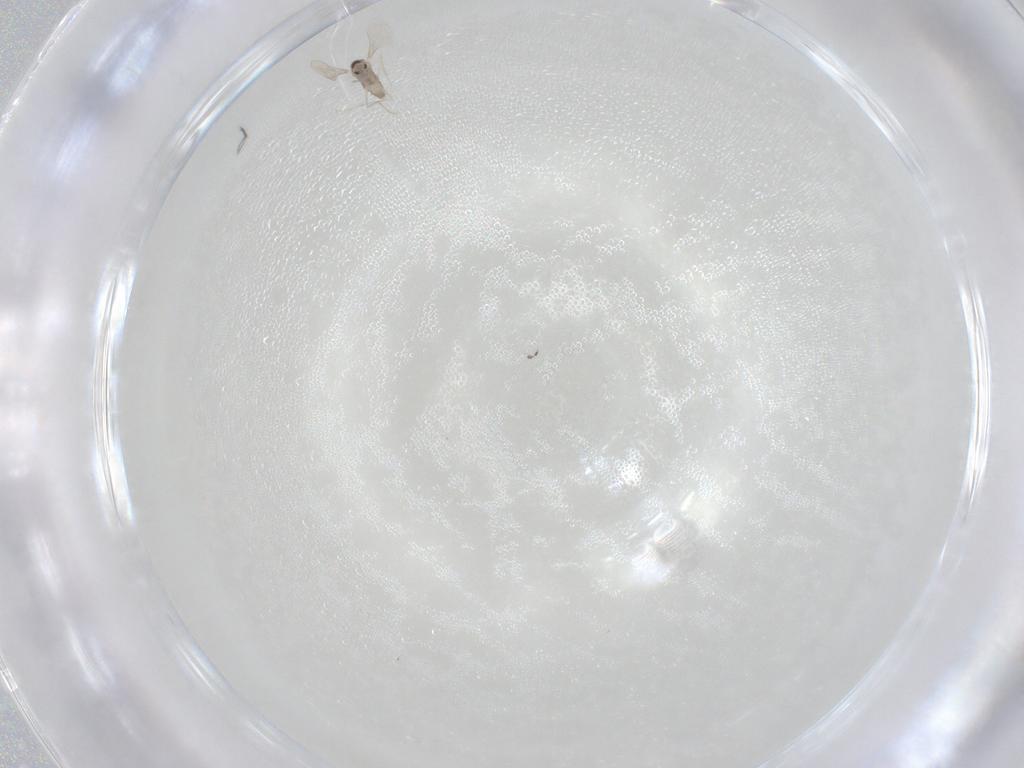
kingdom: Animalia
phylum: Arthropoda
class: Insecta
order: Diptera
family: Cecidomyiidae
